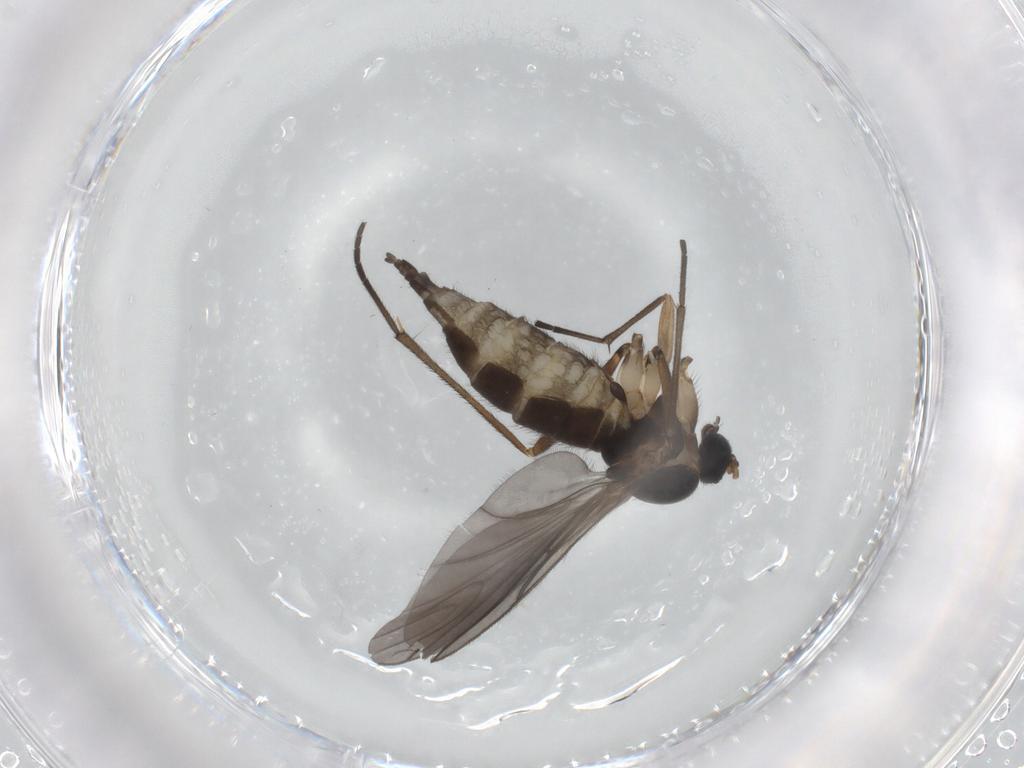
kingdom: Animalia
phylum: Arthropoda
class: Insecta
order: Diptera
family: Sciaridae
